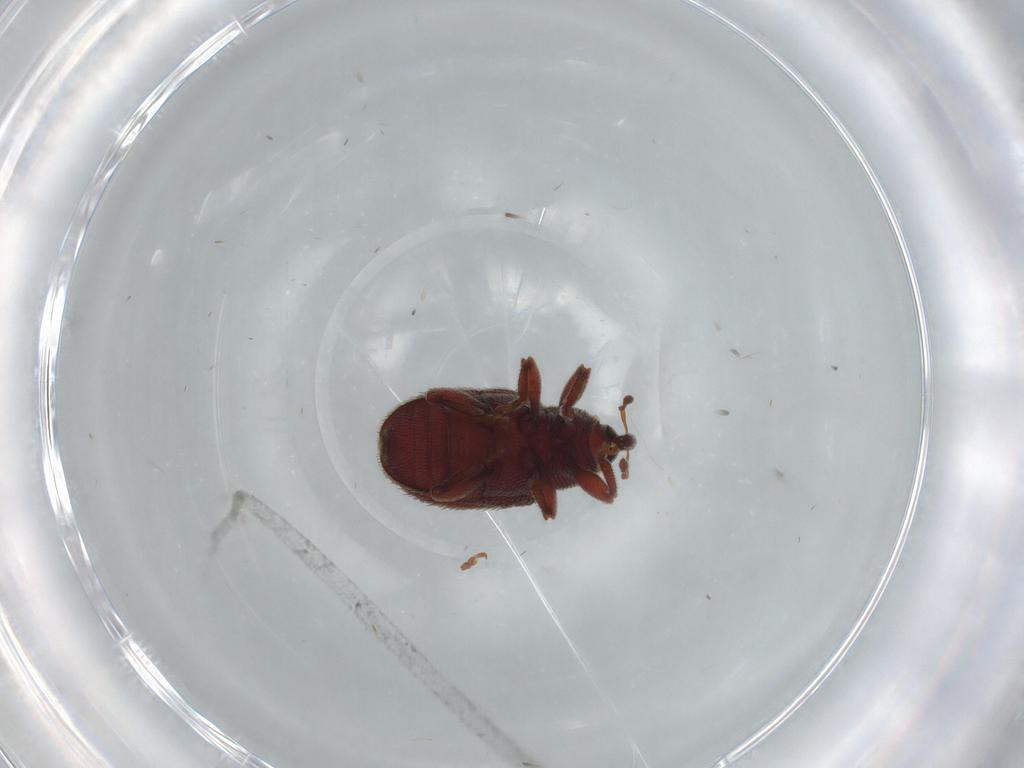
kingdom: Animalia
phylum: Arthropoda
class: Insecta
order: Coleoptera
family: Curculionidae
